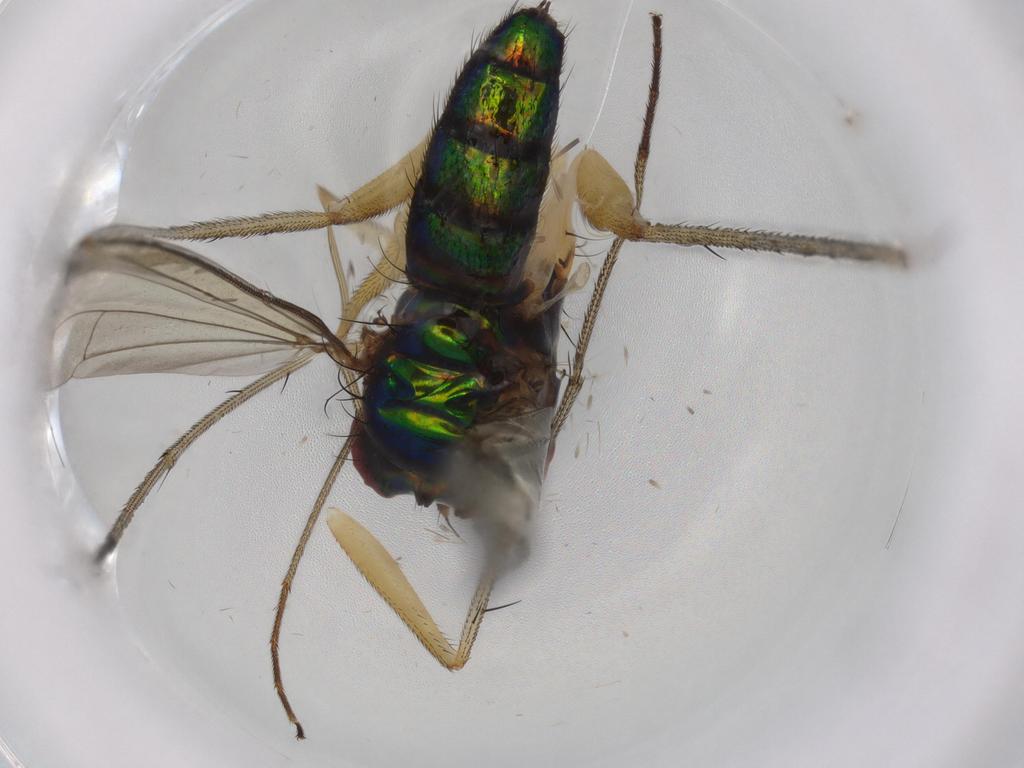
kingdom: Animalia
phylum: Arthropoda
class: Insecta
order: Diptera
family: Dolichopodidae
